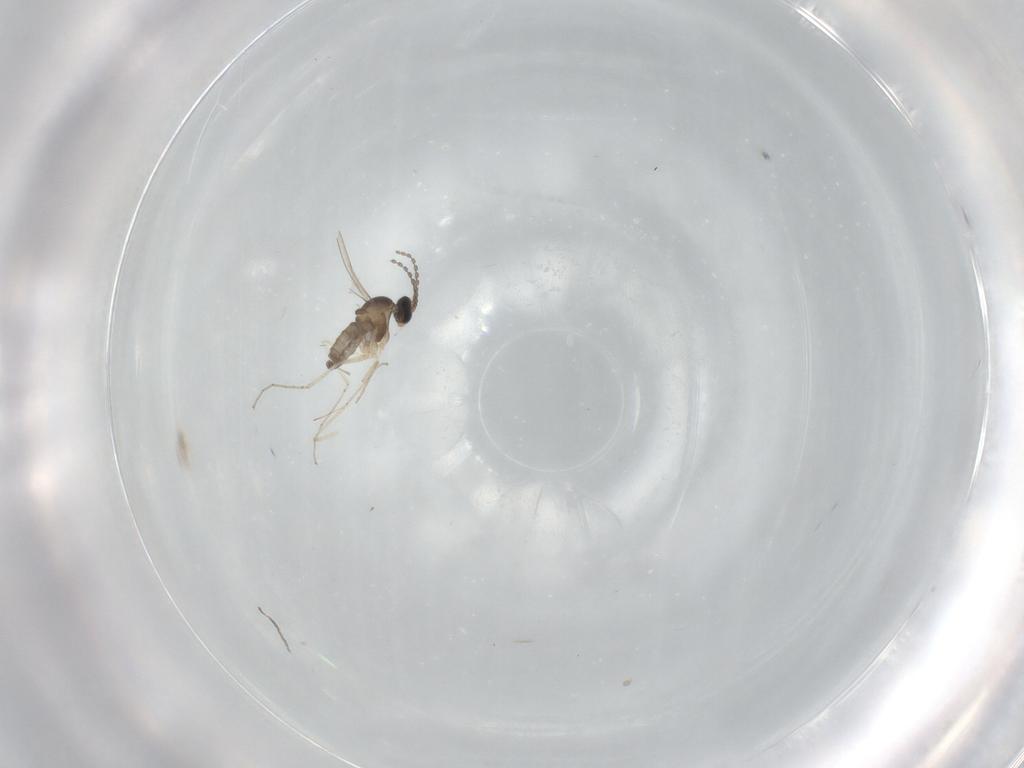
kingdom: Animalia
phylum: Arthropoda
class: Insecta
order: Diptera
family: Cecidomyiidae
